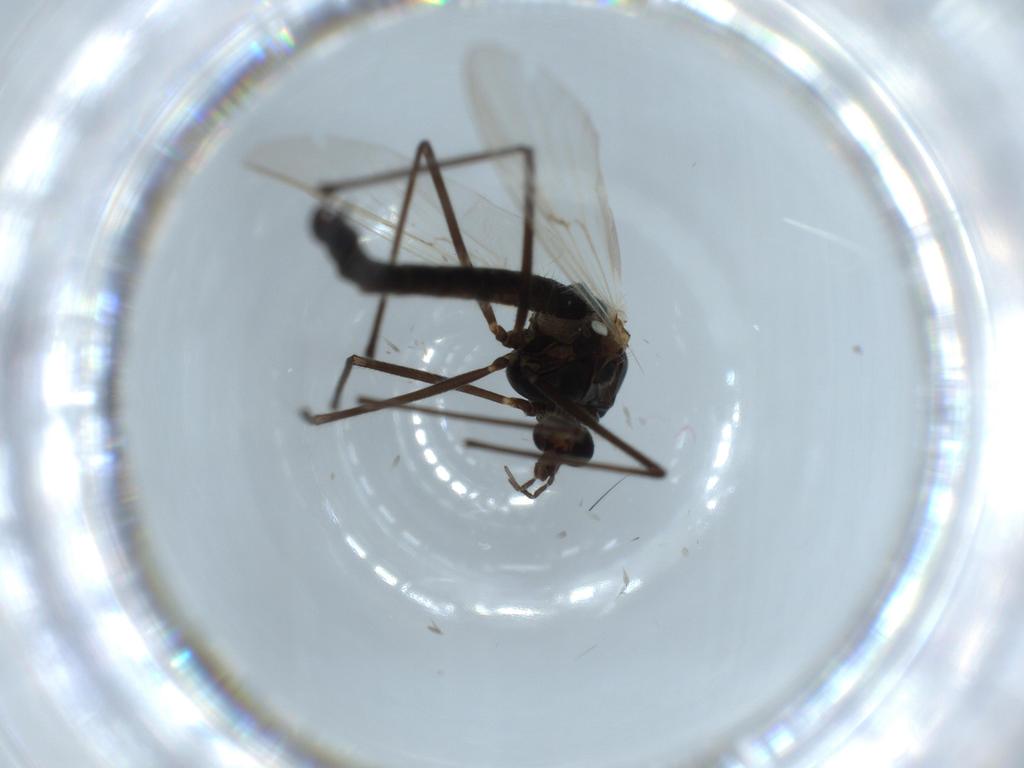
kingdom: Animalia
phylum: Arthropoda
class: Insecta
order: Diptera
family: Chironomidae
